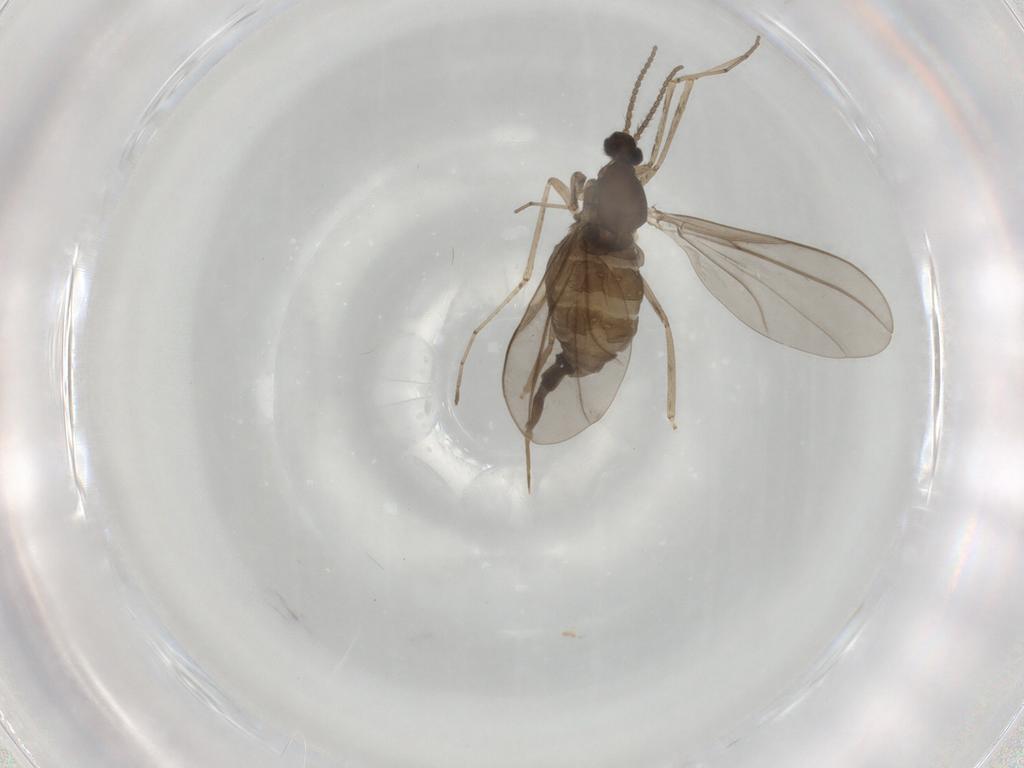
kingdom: Animalia
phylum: Arthropoda
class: Insecta
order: Diptera
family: Cecidomyiidae
